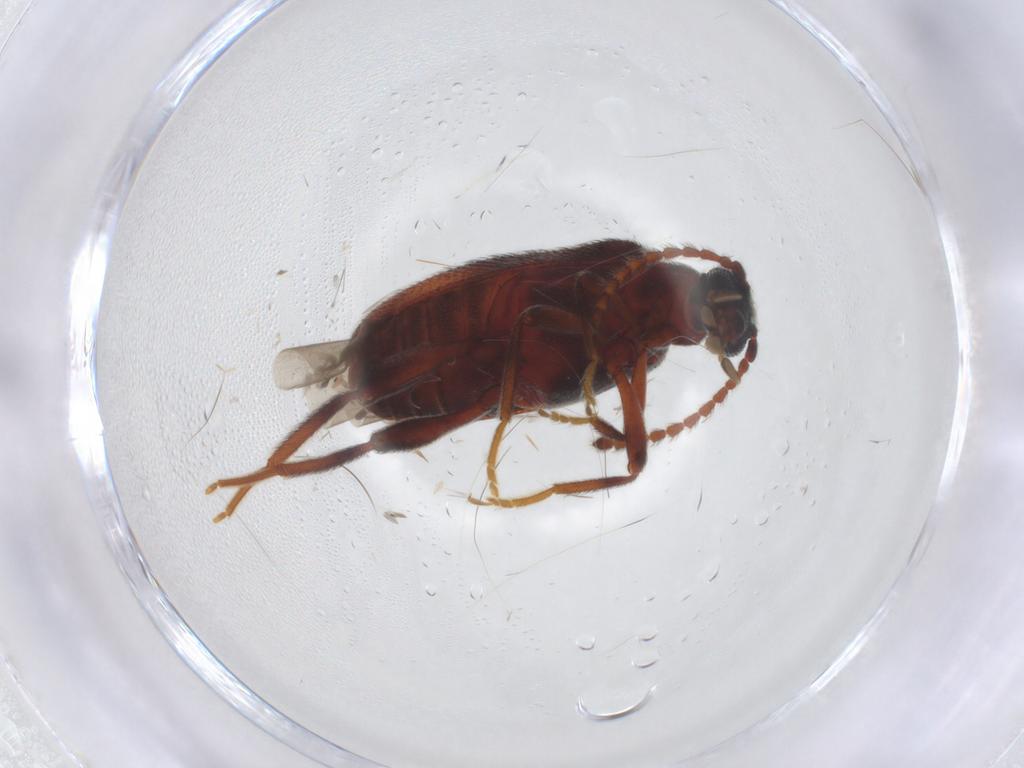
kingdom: Animalia
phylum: Arthropoda
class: Insecta
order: Coleoptera
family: Aderidae
